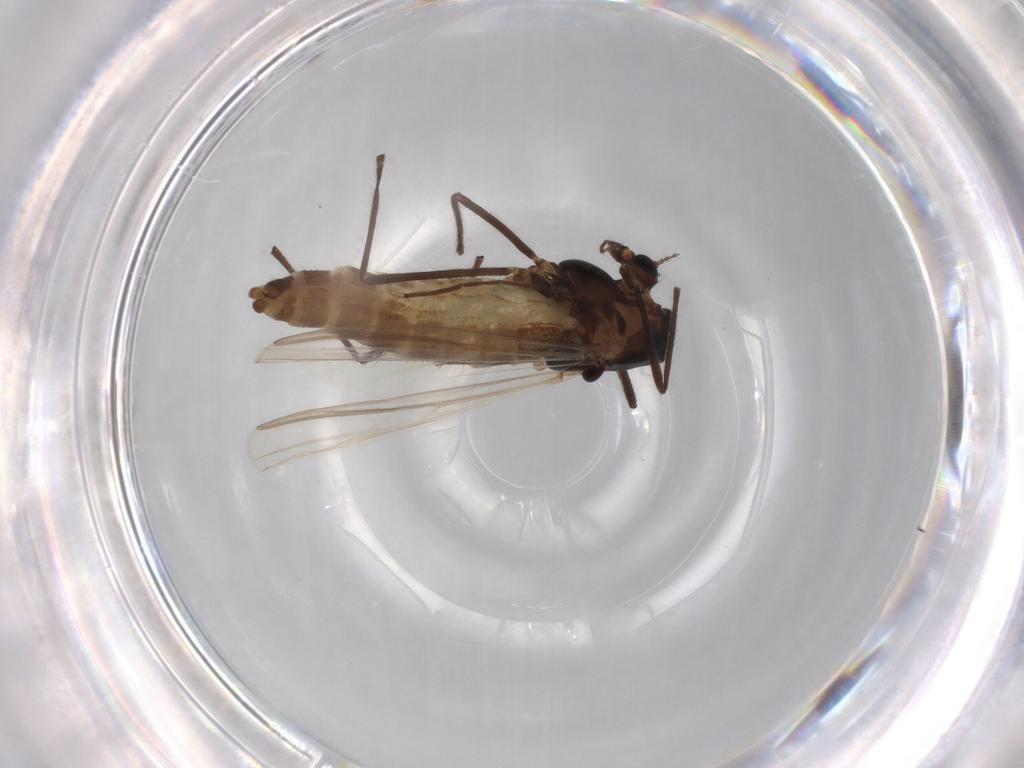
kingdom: Animalia
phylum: Arthropoda
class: Insecta
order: Diptera
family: Chironomidae
